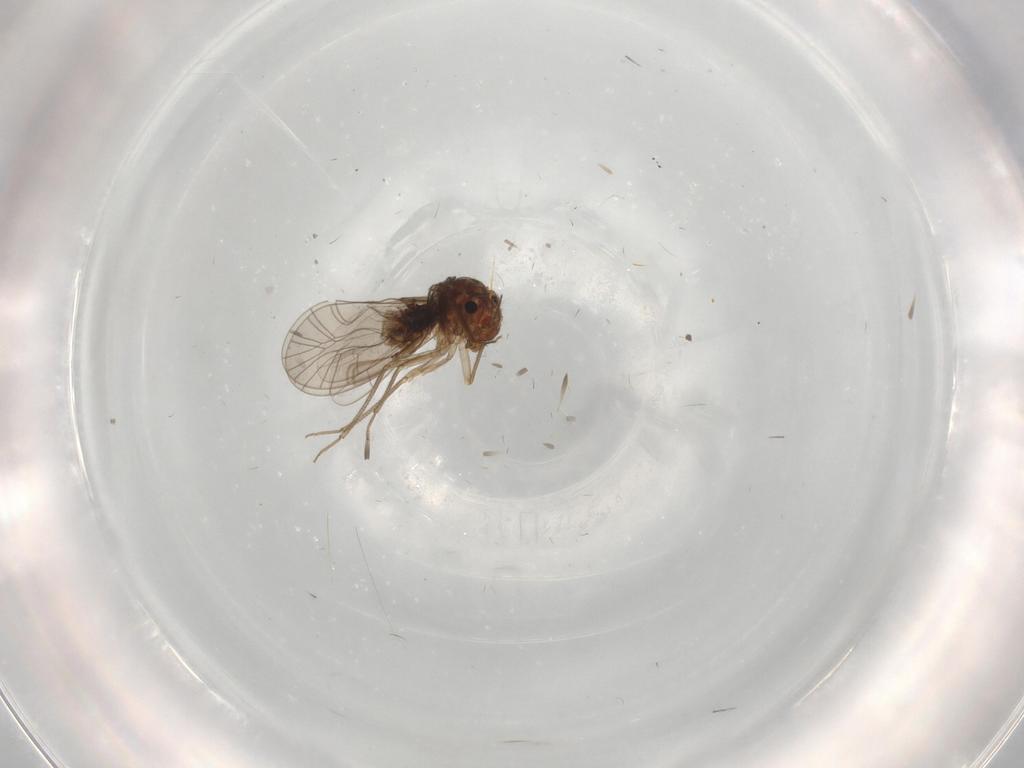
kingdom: Animalia
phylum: Arthropoda
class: Insecta
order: Psocodea
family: Lachesillidae
